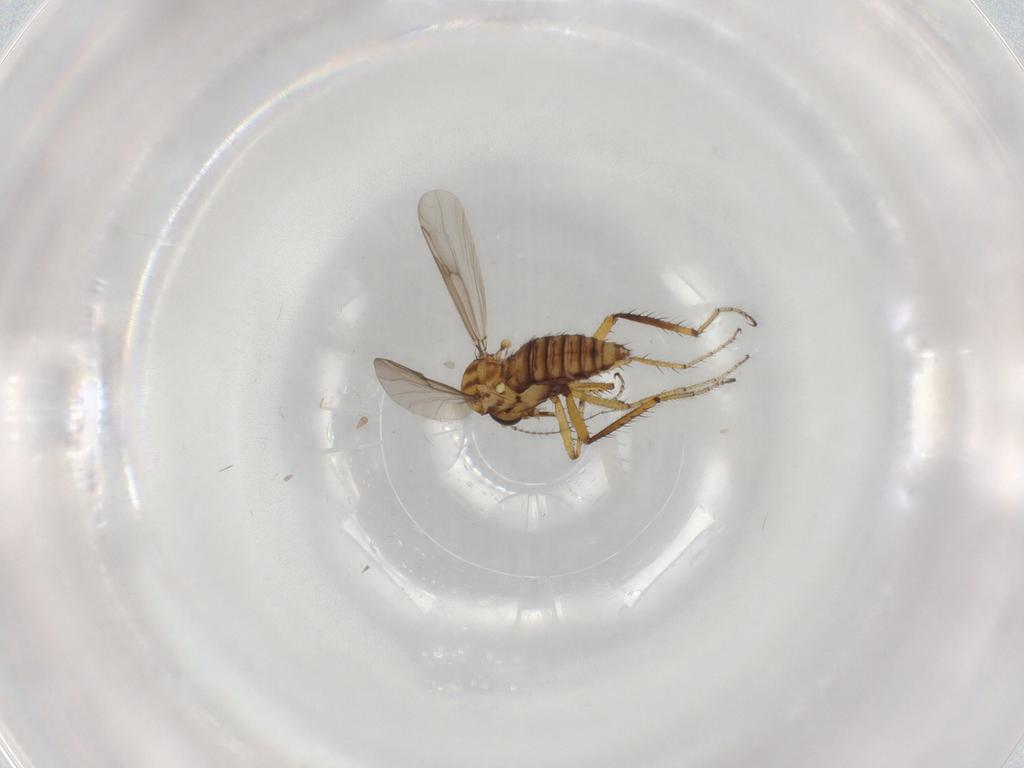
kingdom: Animalia
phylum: Arthropoda
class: Insecta
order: Diptera
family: Ceratopogonidae
